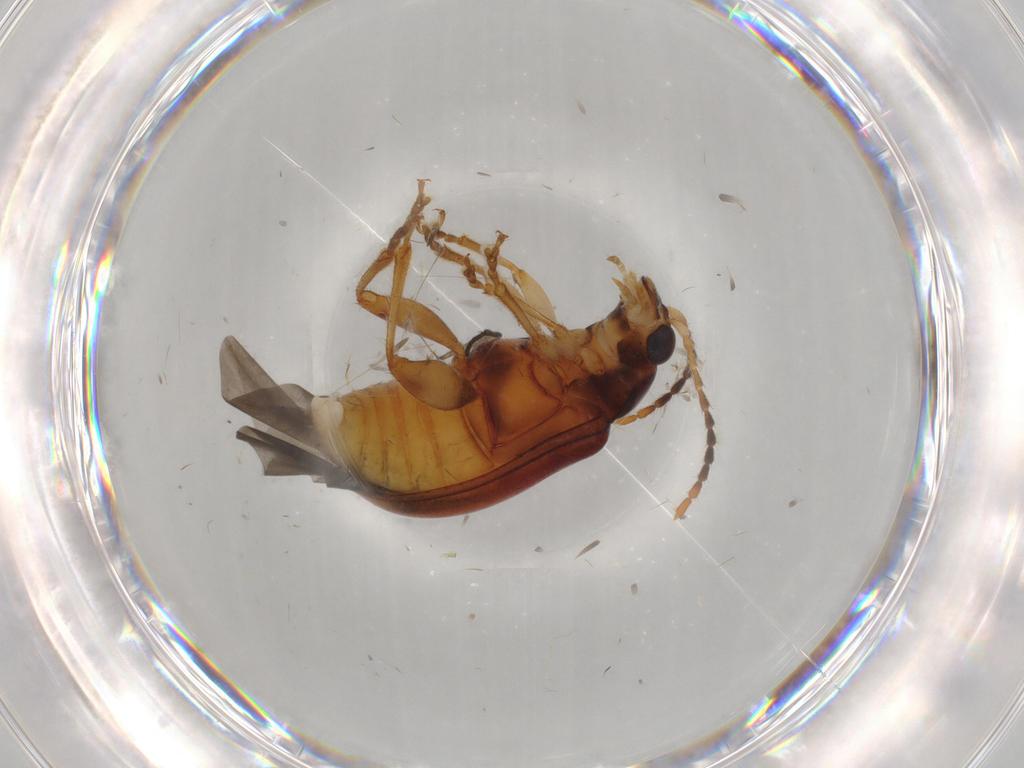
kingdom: Animalia
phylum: Arthropoda
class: Insecta
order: Coleoptera
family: Chrysomelidae
